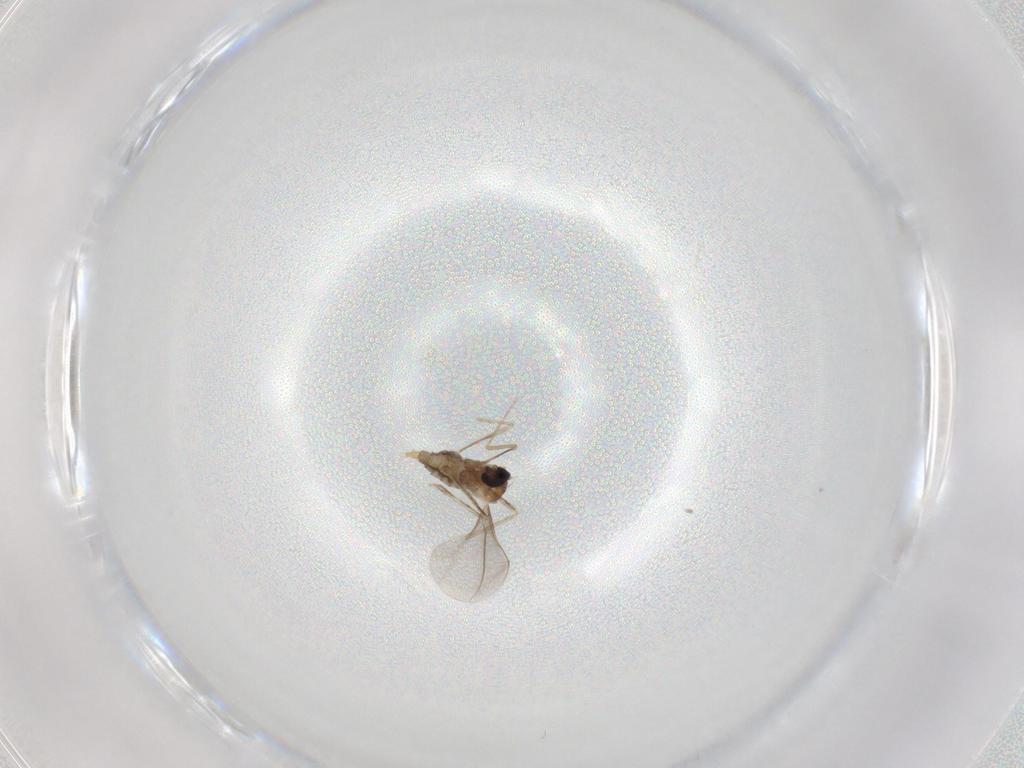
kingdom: Animalia
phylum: Arthropoda
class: Insecta
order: Diptera
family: Cecidomyiidae
